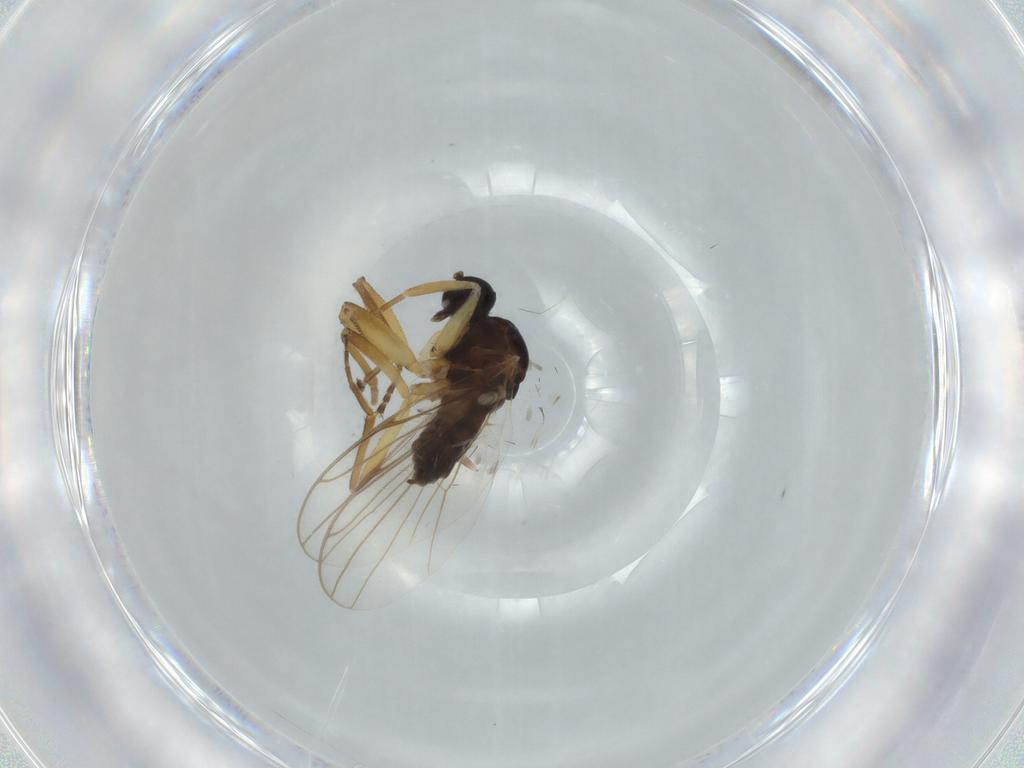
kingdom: Animalia
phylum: Arthropoda
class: Insecta
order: Diptera
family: Hybotidae
